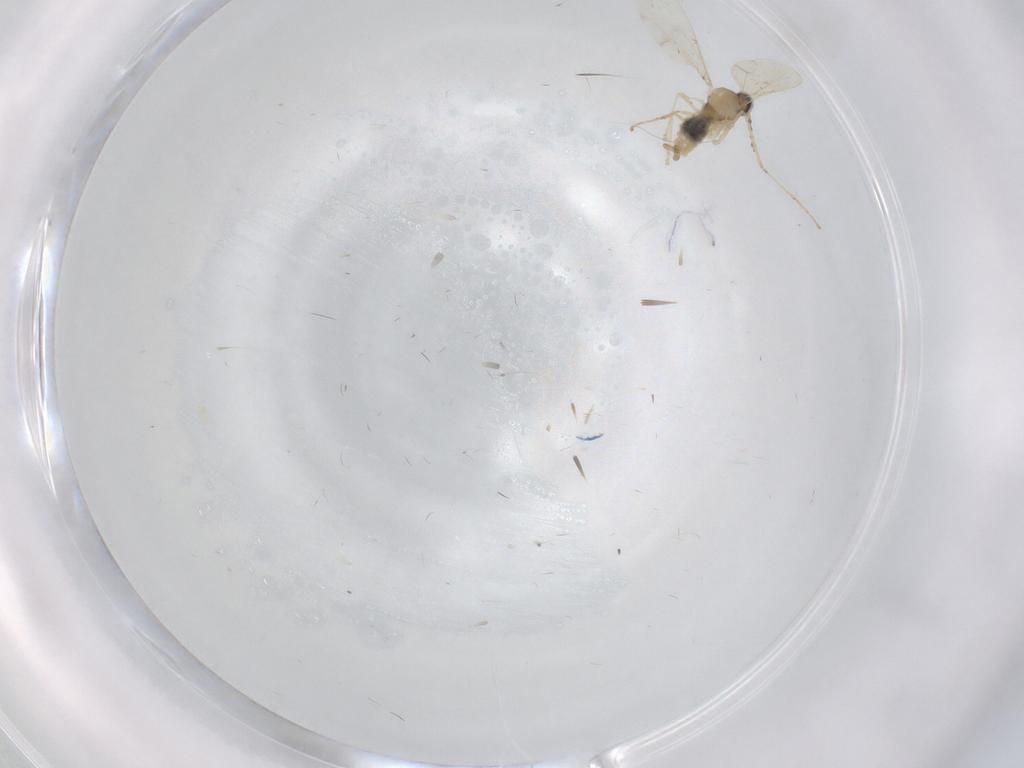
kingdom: Animalia
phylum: Arthropoda
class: Insecta
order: Diptera
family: Cecidomyiidae
